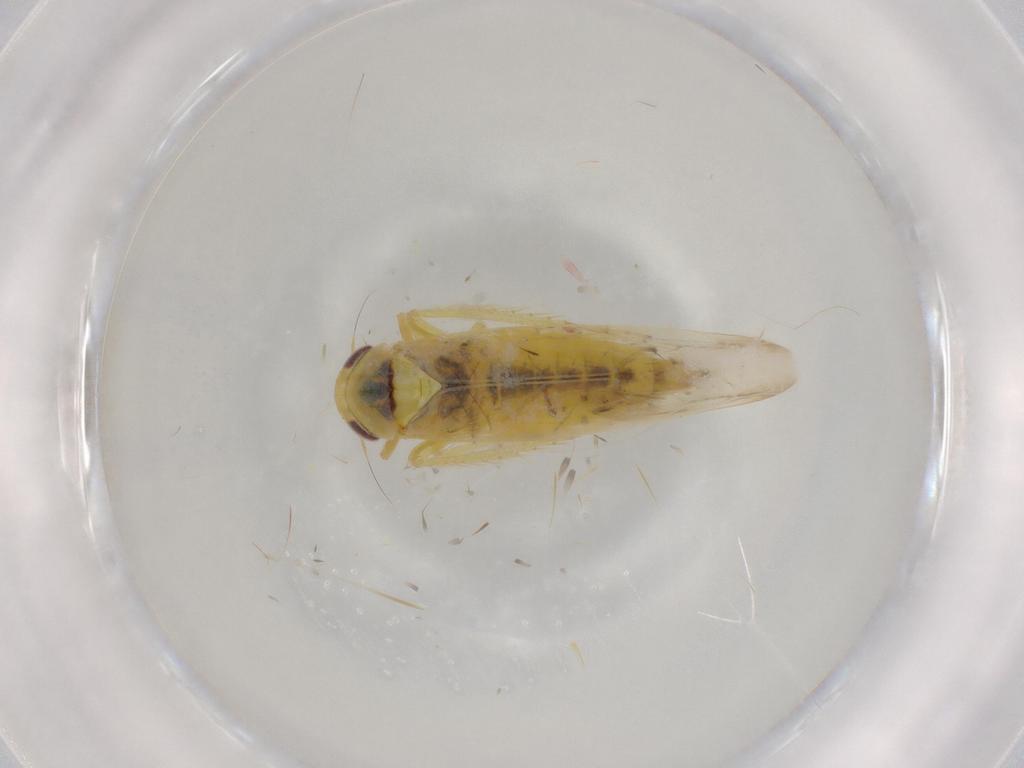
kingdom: Animalia
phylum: Arthropoda
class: Insecta
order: Hemiptera
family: Cicadellidae
